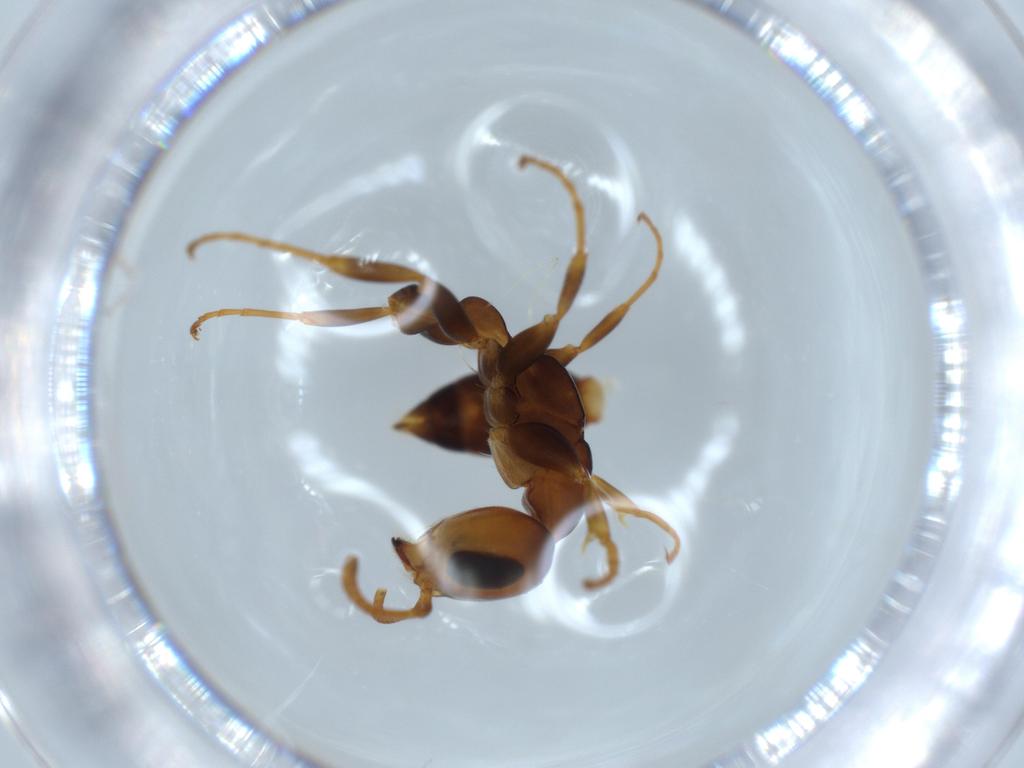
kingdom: Animalia
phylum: Arthropoda
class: Insecta
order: Hymenoptera
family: Formicidae
